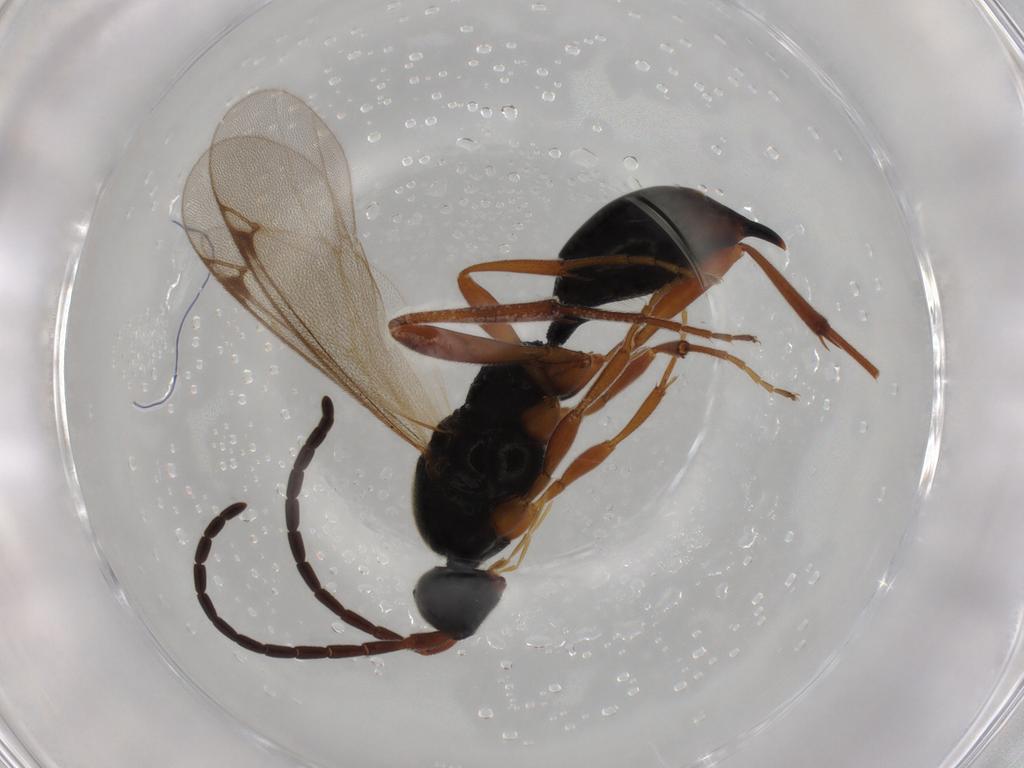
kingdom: Animalia
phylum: Arthropoda
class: Insecta
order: Hymenoptera
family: Proctotrupidae
